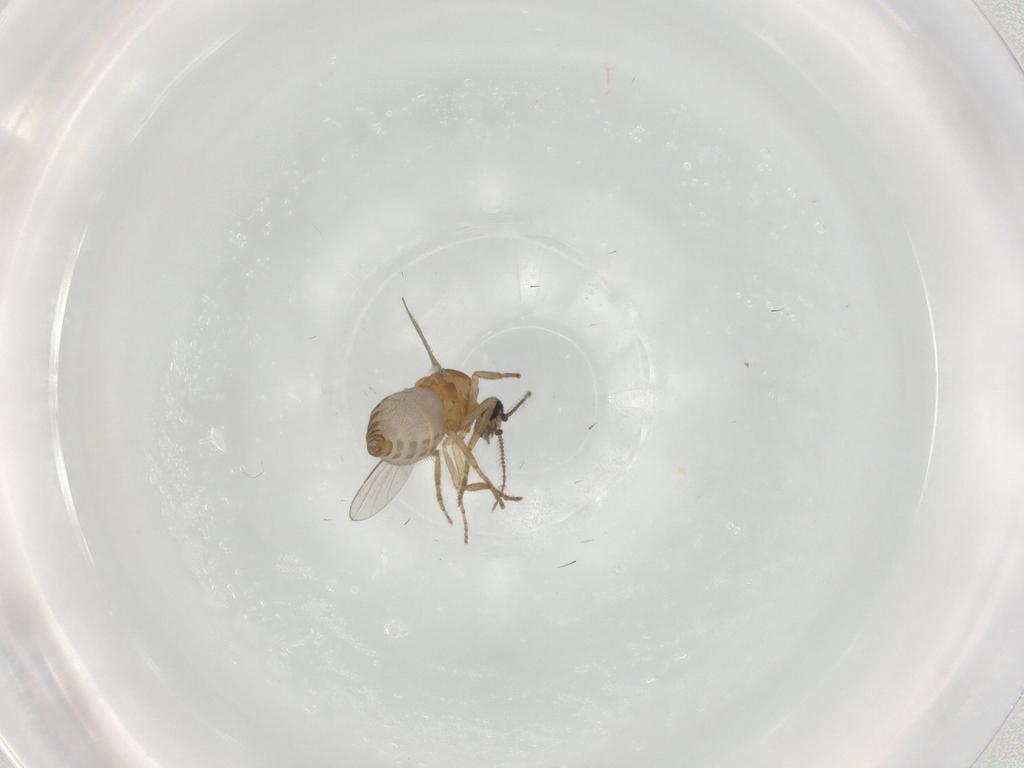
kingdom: Animalia
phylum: Arthropoda
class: Insecta
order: Diptera
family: Ceratopogonidae
